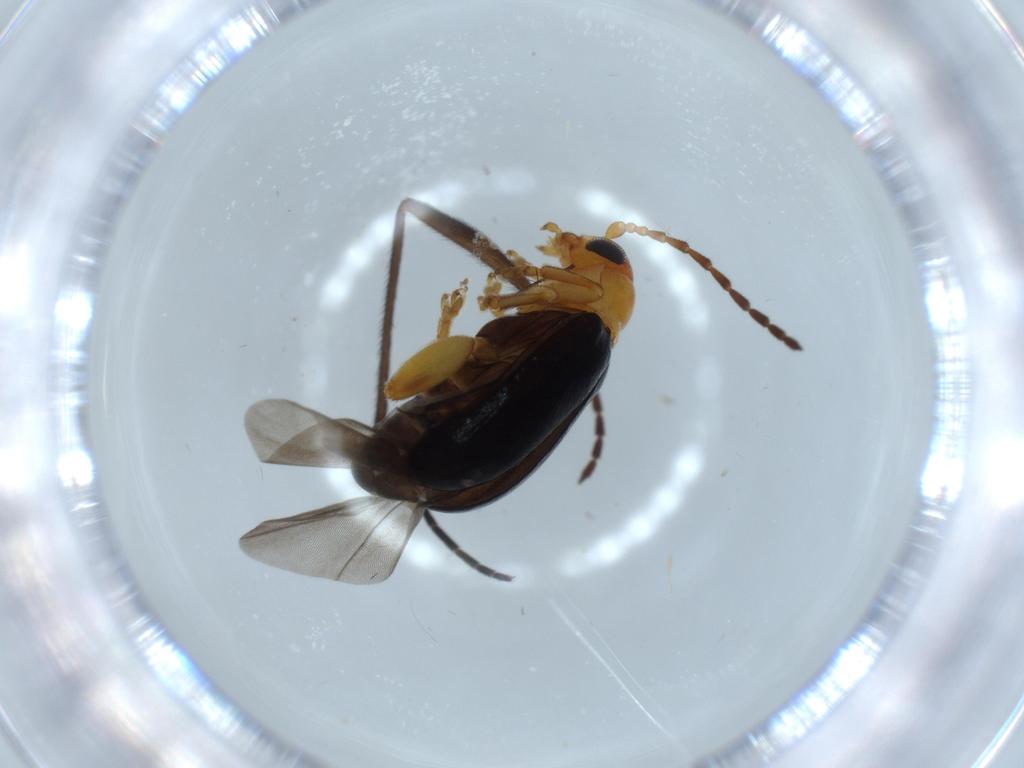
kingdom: Animalia
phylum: Arthropoda
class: Insecta
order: Coleoptera
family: Chrysomelidae
